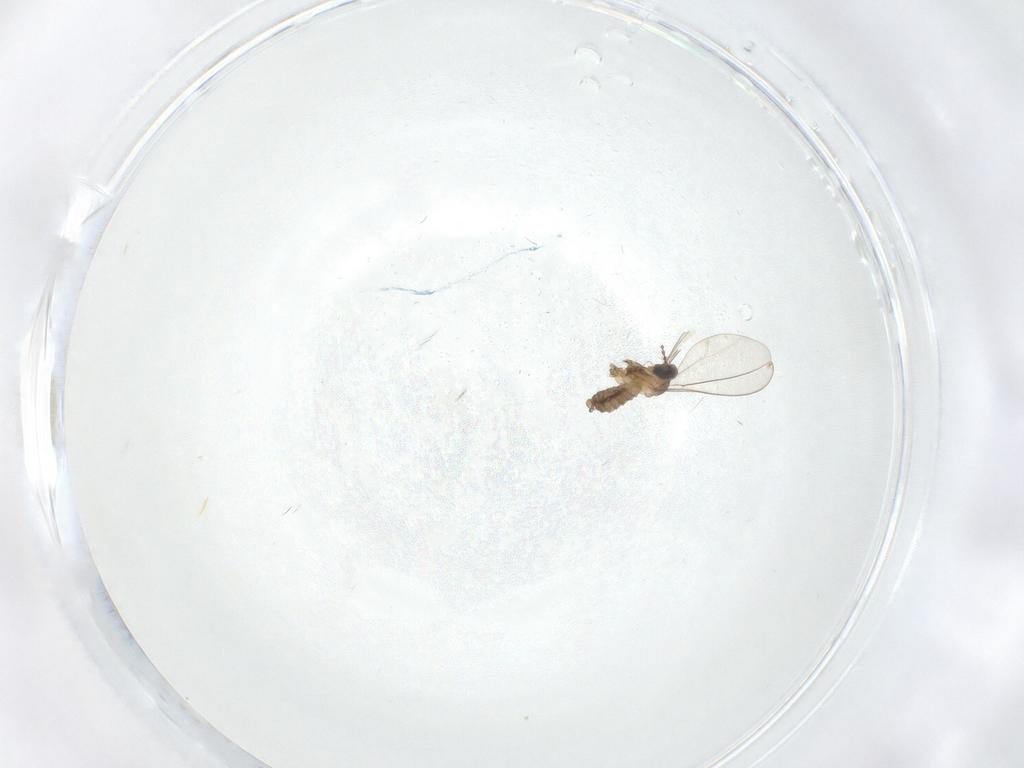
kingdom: Animalia
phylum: Arthropoda
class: Insecta
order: Diptera
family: Cecidomyiidae
